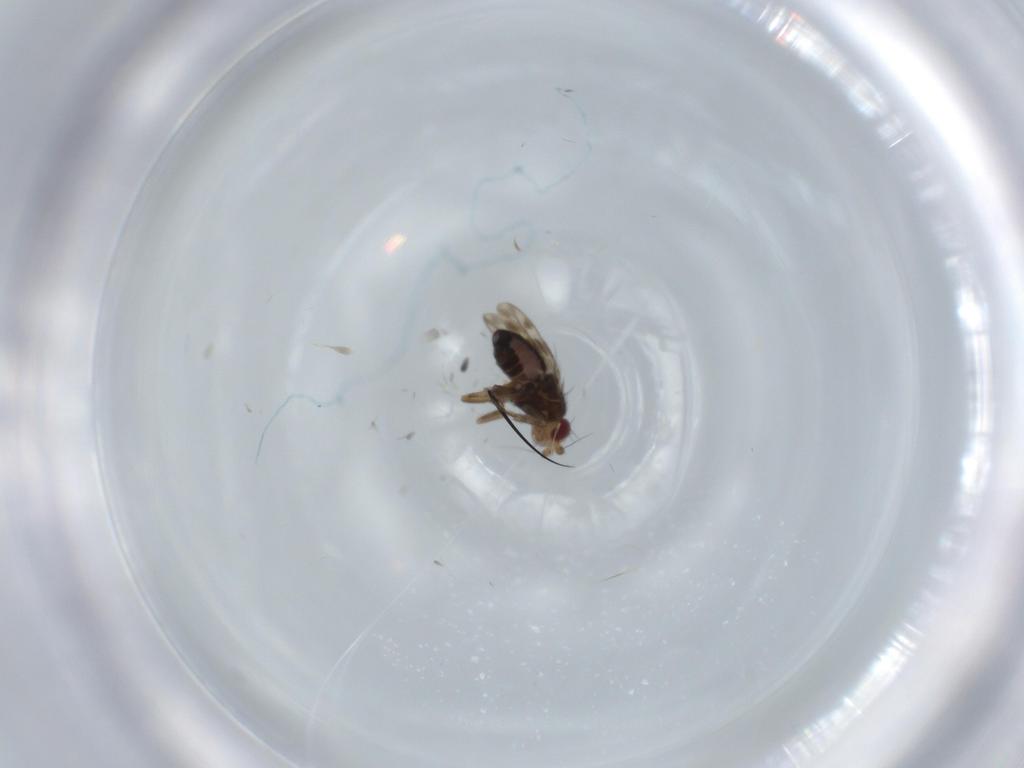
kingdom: Animalia
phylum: Arthropoda
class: Insecta
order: Diptera
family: Sphaeroceridae
